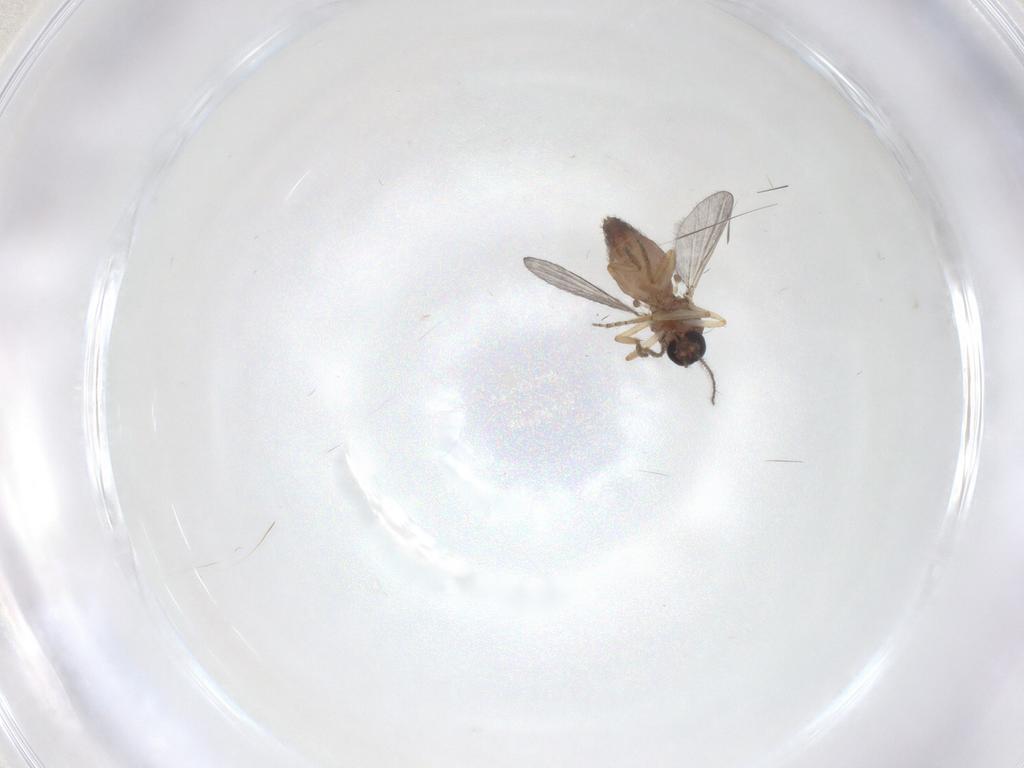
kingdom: Animalia
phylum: Arthropoda
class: Insecta
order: Diptera
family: Ceratopogonidae
